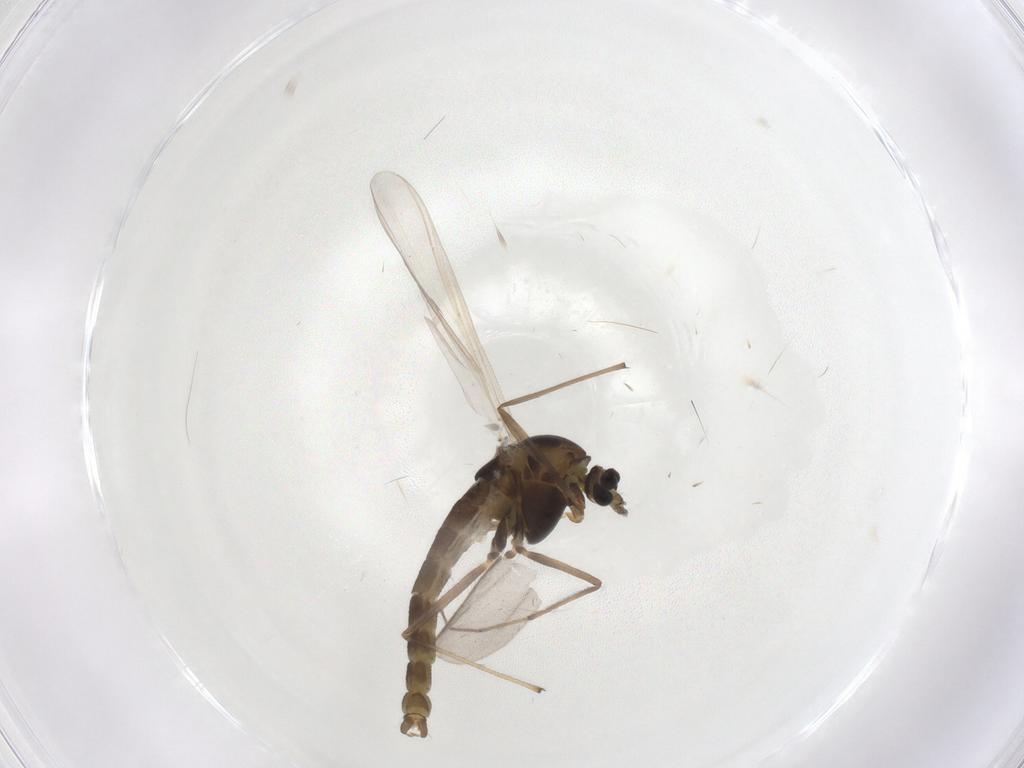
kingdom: Animalia
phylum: Arthropoda
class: Insecta
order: Diptera
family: Chironomidae
